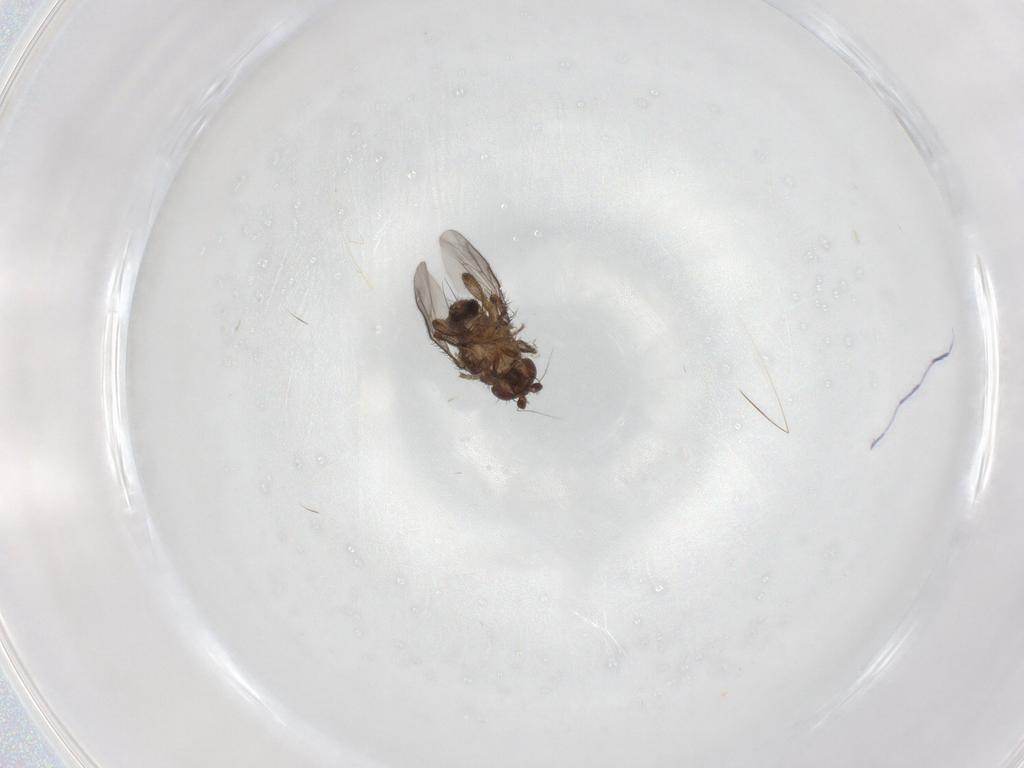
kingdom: Animalia
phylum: Arthropoda
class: Insecta
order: Diptera
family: Sphaeroceridae
